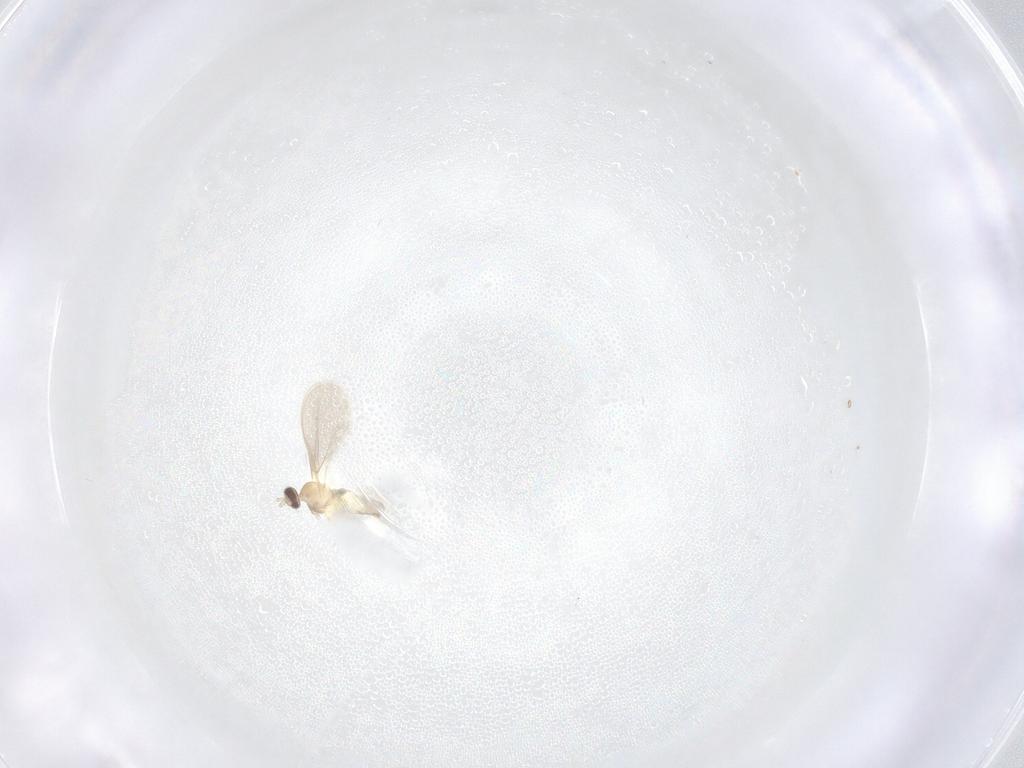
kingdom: Animalia
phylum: Arthropoda
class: Insecta
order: Diptera
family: Cecidomyiidae
